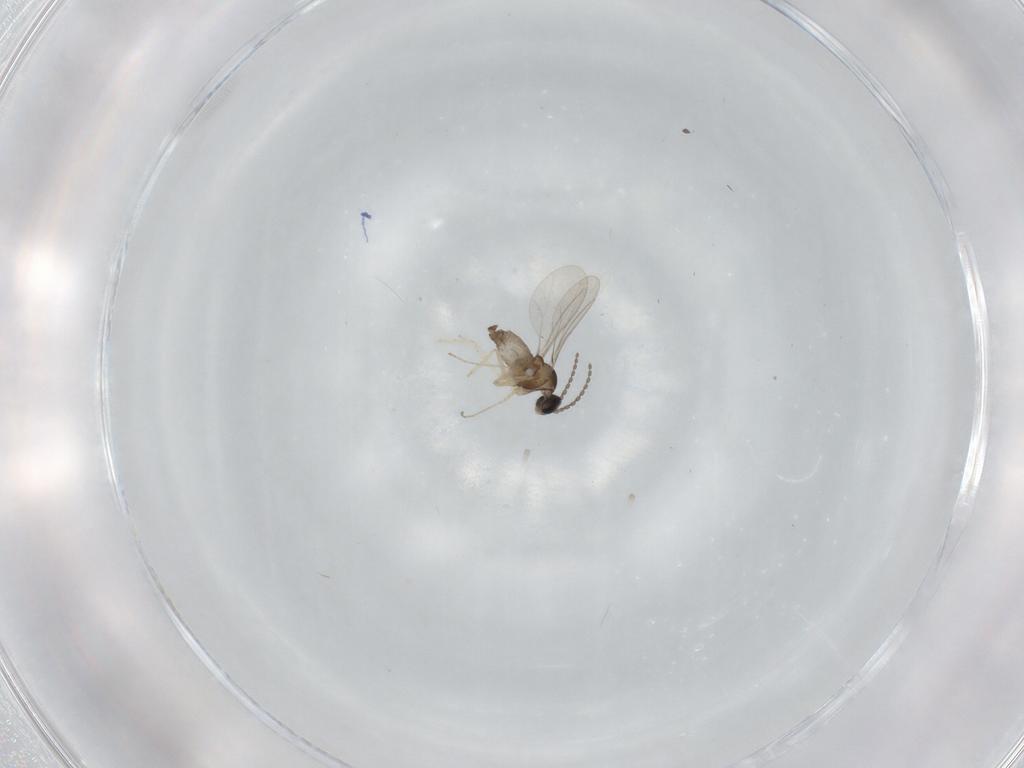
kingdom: Animalia
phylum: Arthropoda
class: Insecta
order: Diptera
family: Cecidomyiidae
